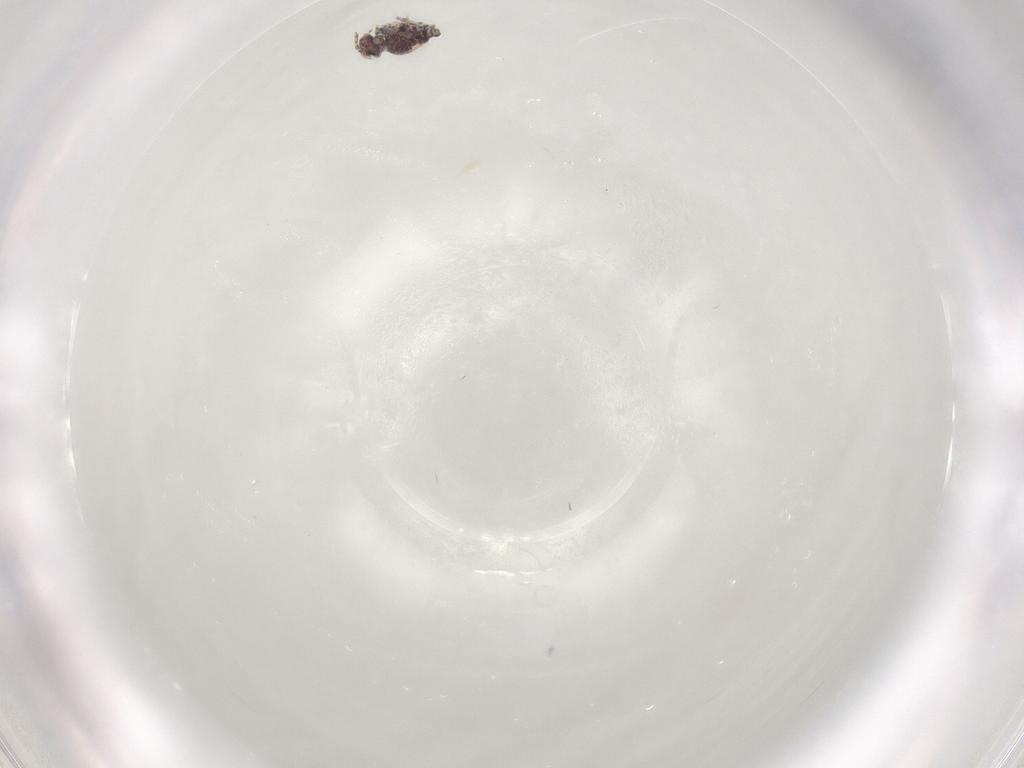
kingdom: Animalia
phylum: Arthropoda
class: Collembola
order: Symphypleona
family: Bourletiellidae
